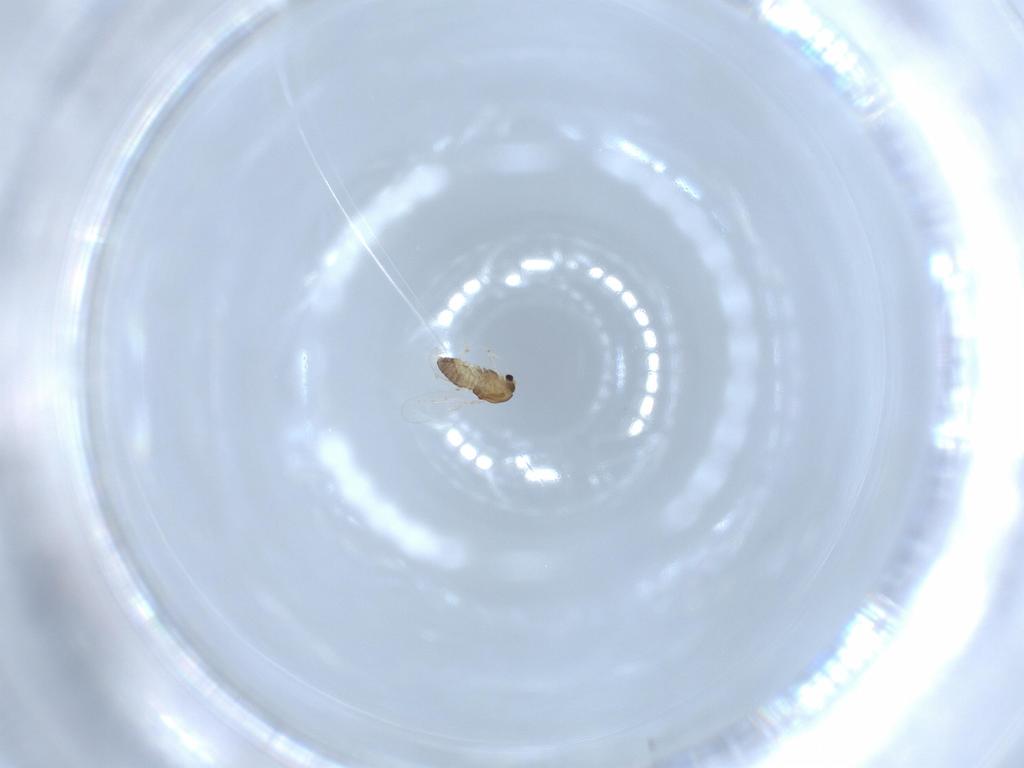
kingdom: Animalia
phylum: Arthropoda
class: Insecta
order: Diptera
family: Chironomidae
